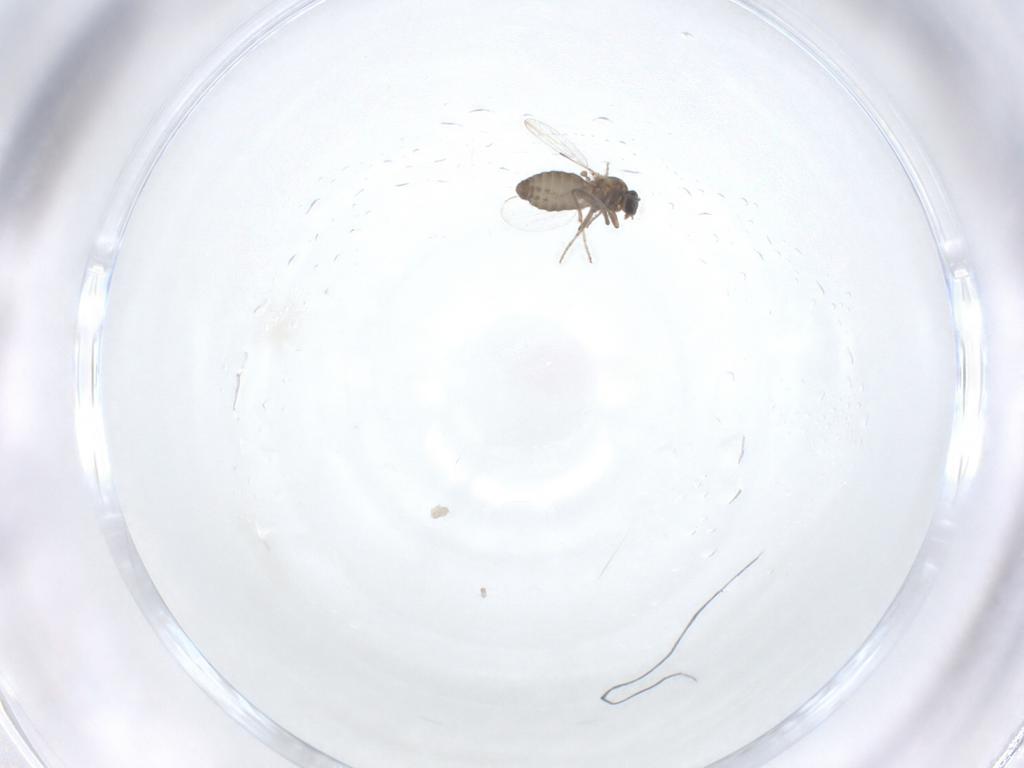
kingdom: Animalia
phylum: Arthropoda
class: Insecta
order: Diptera
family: Ceratopogonidae
